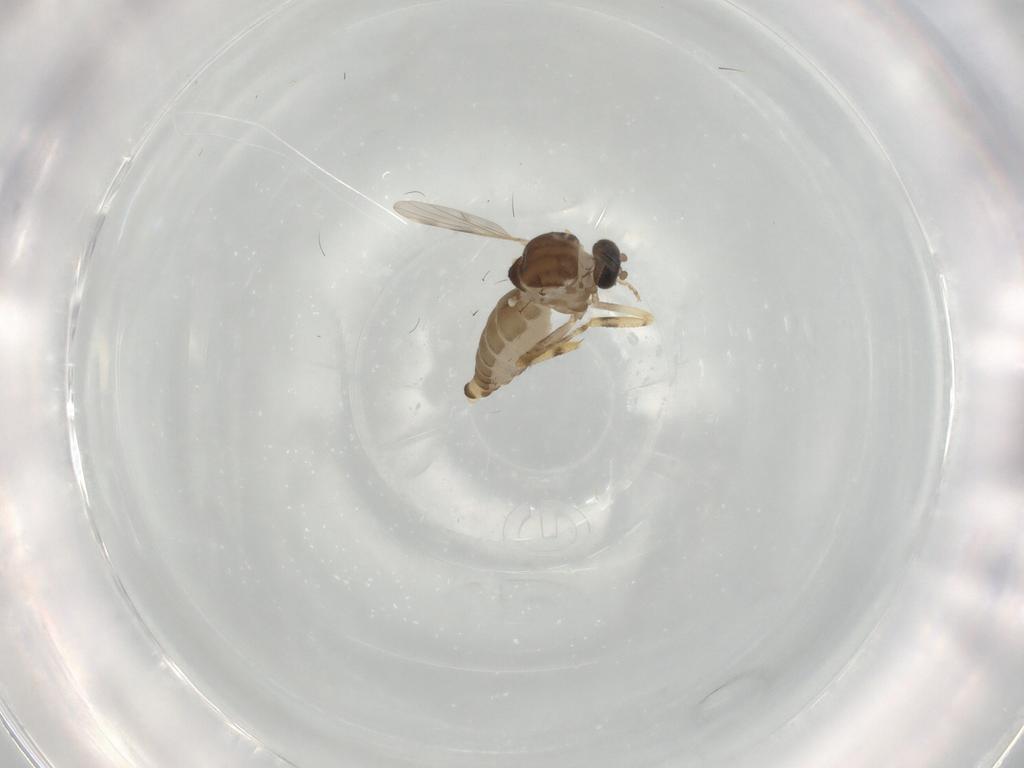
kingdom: Animalia
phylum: Arthropoda
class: Insecta
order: Diptera
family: Ceratopogonidae
